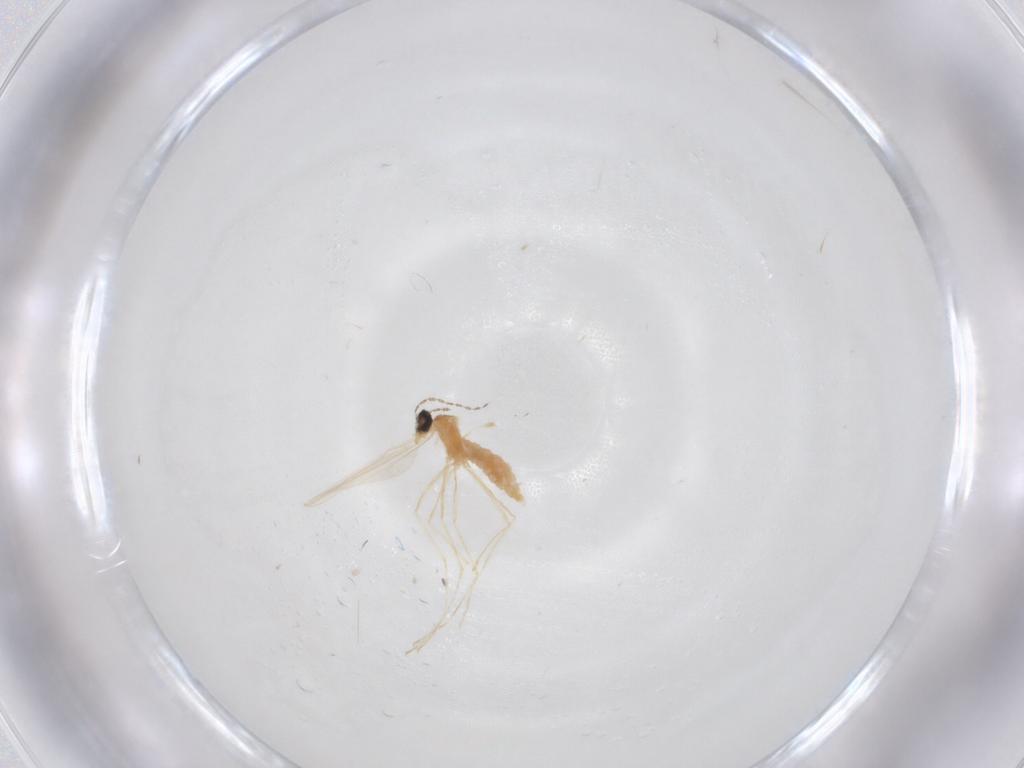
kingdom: Animalia
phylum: Arthropoda
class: Insecta
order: Diptera
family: Cecidomyiidae
